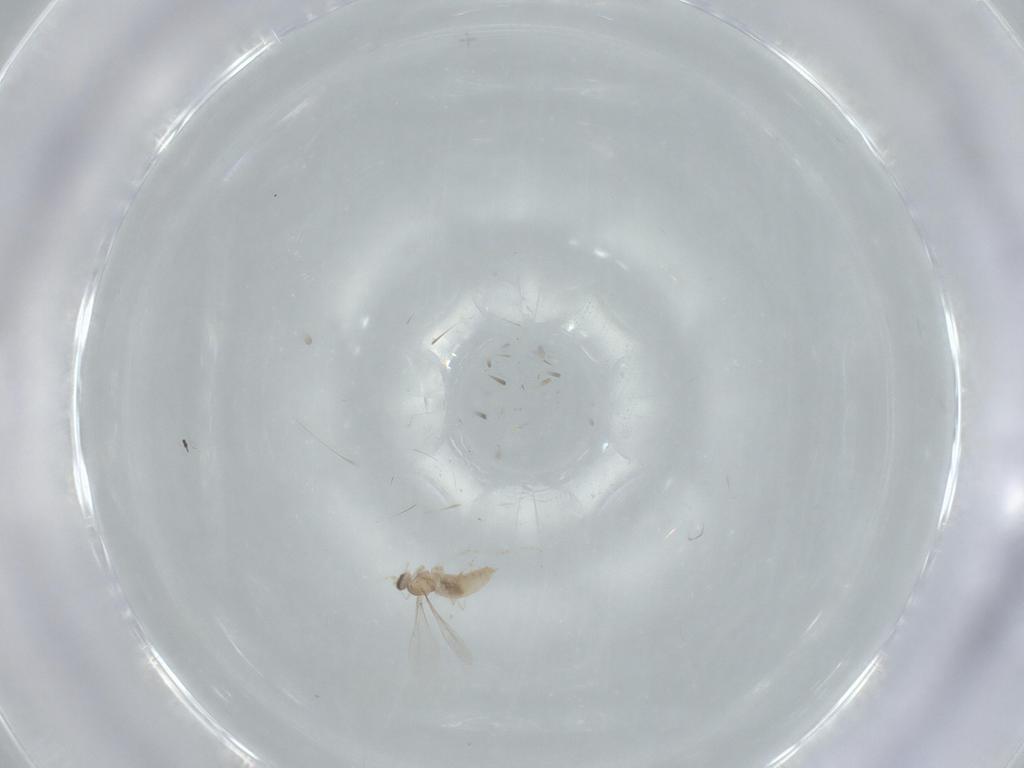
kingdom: Animalia
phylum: Arthropoda
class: Insecta
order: Diptera
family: Cecidomyiidae
